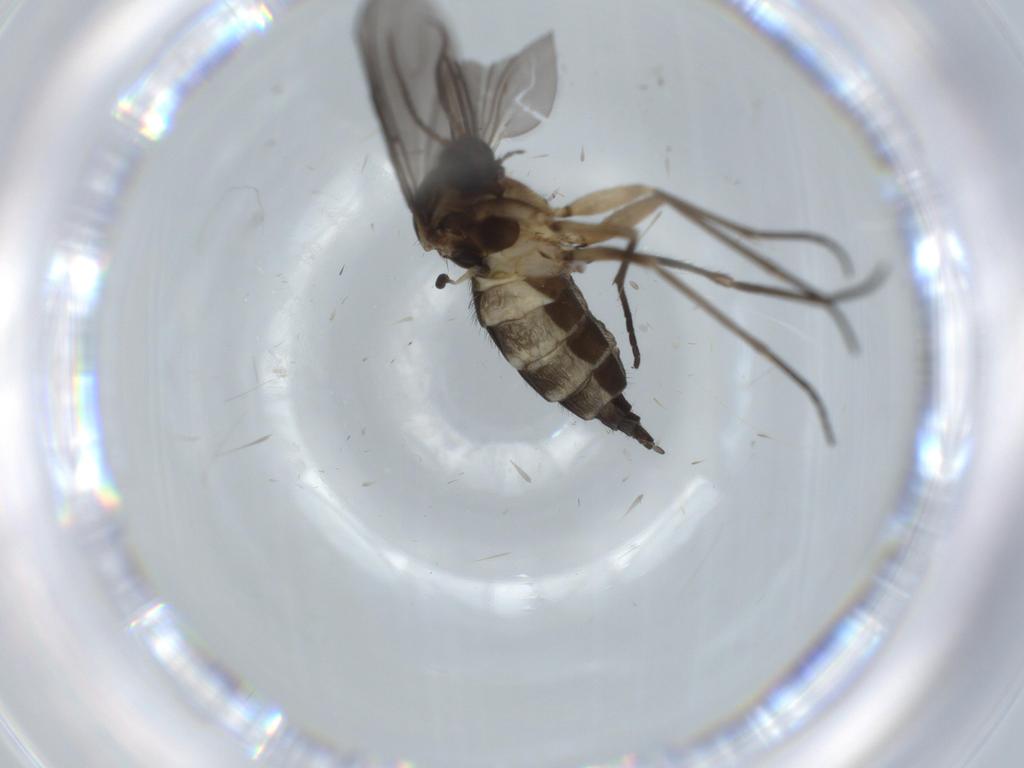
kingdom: Animalia
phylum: Arthropoda
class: Insecta
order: Diptera
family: Sciaridae
